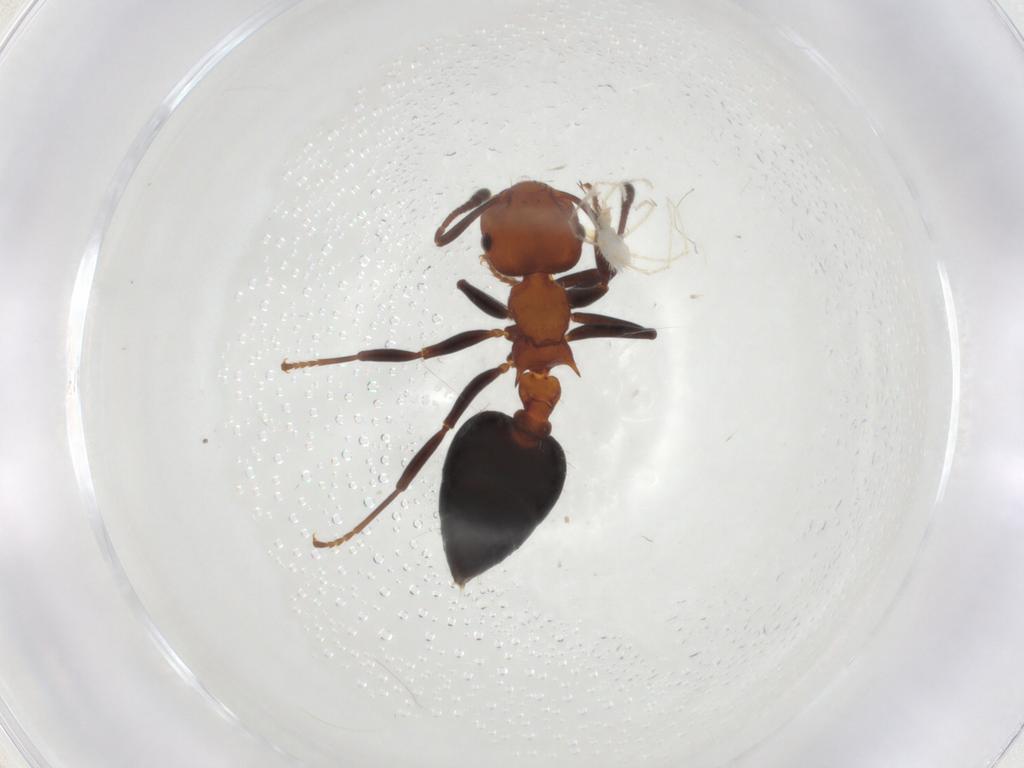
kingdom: Animalia
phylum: Arthropoda
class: Arachnida
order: Trombidiformes
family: Erythraeidae
